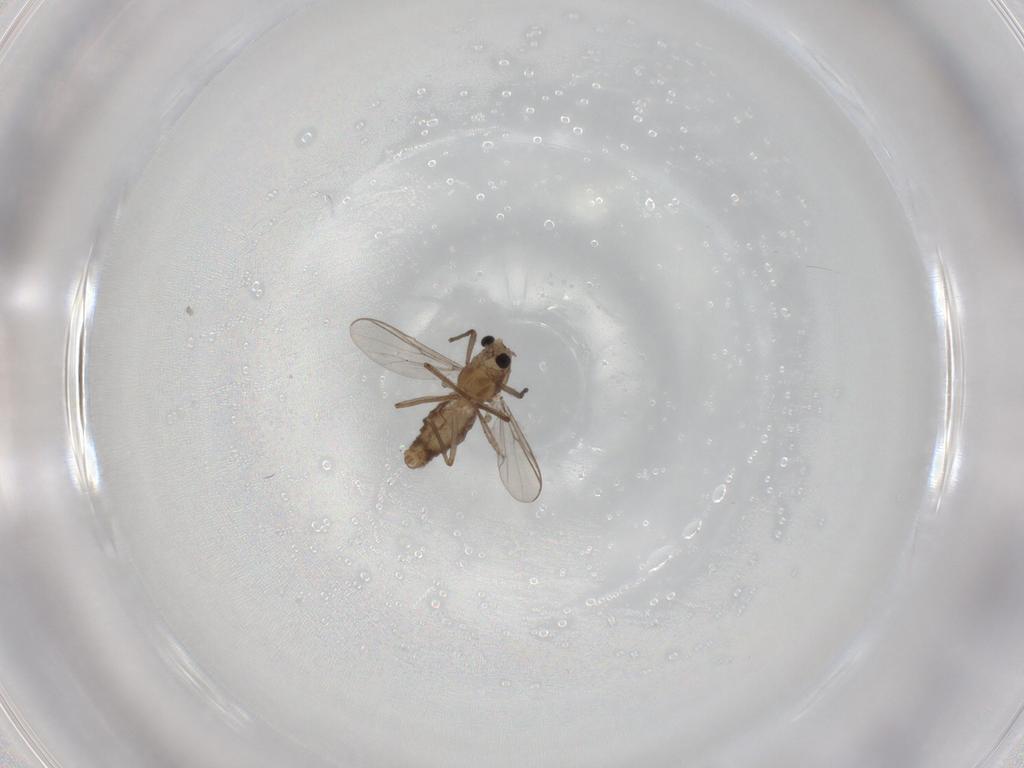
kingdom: Animalia
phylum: Arthropoda
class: Insecta
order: Diptera
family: Chironomidae
